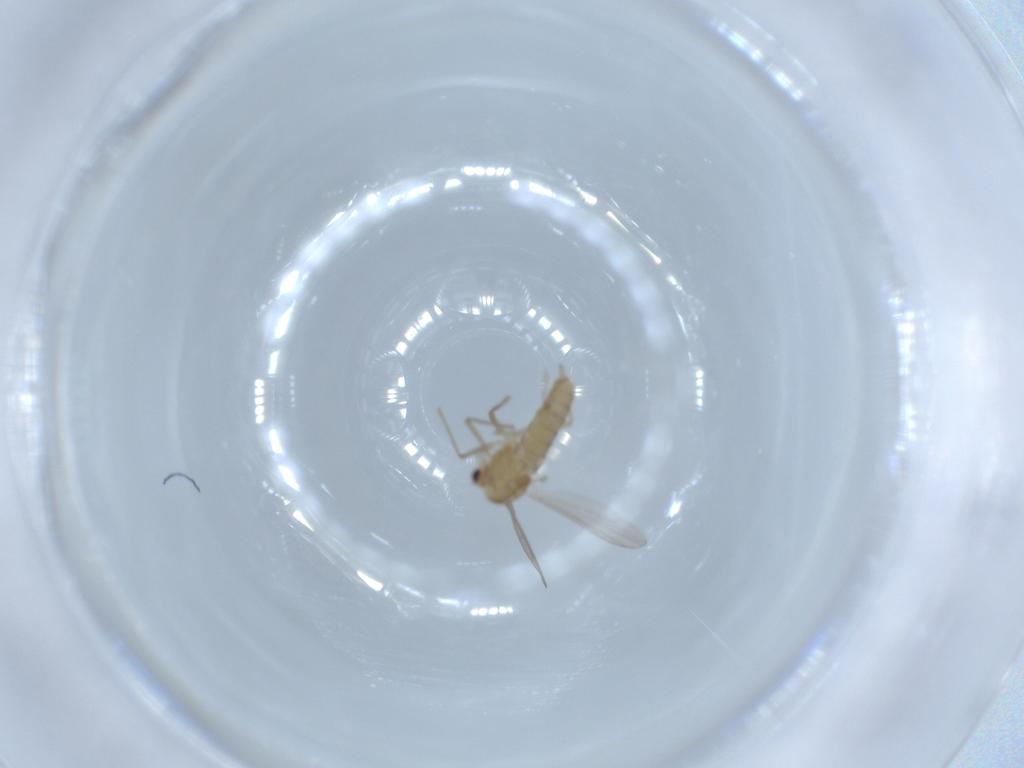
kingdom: Animalia
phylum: Arthropoda
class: Insecta
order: Diptera
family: Chironomidae
